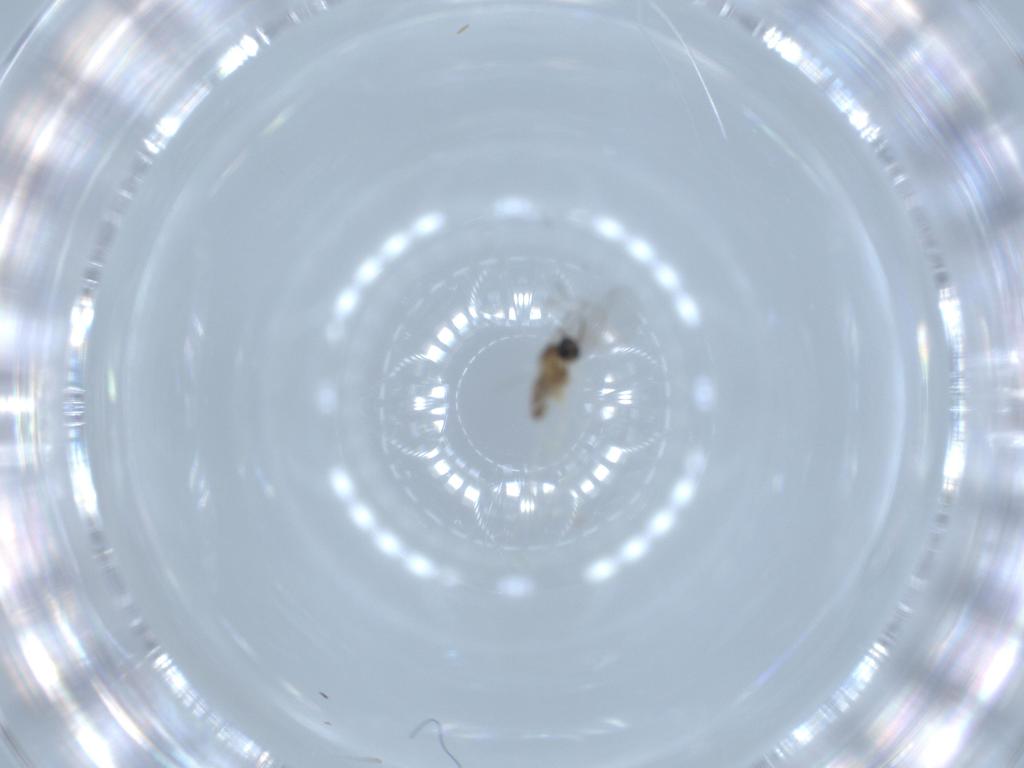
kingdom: Animalia
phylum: Arthropoda
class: Insecta
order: Diptera
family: Cecidomyiidae
